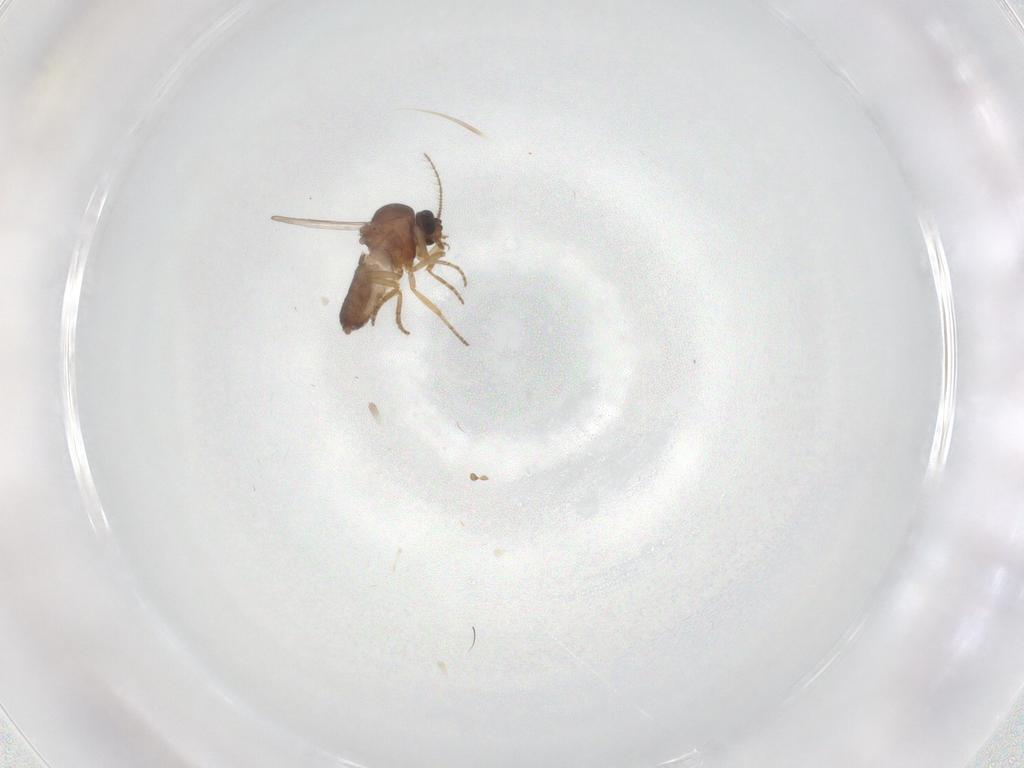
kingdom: Animalia
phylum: Arthropoda
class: Insecta
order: Diptera
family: Ceratopogonidae
